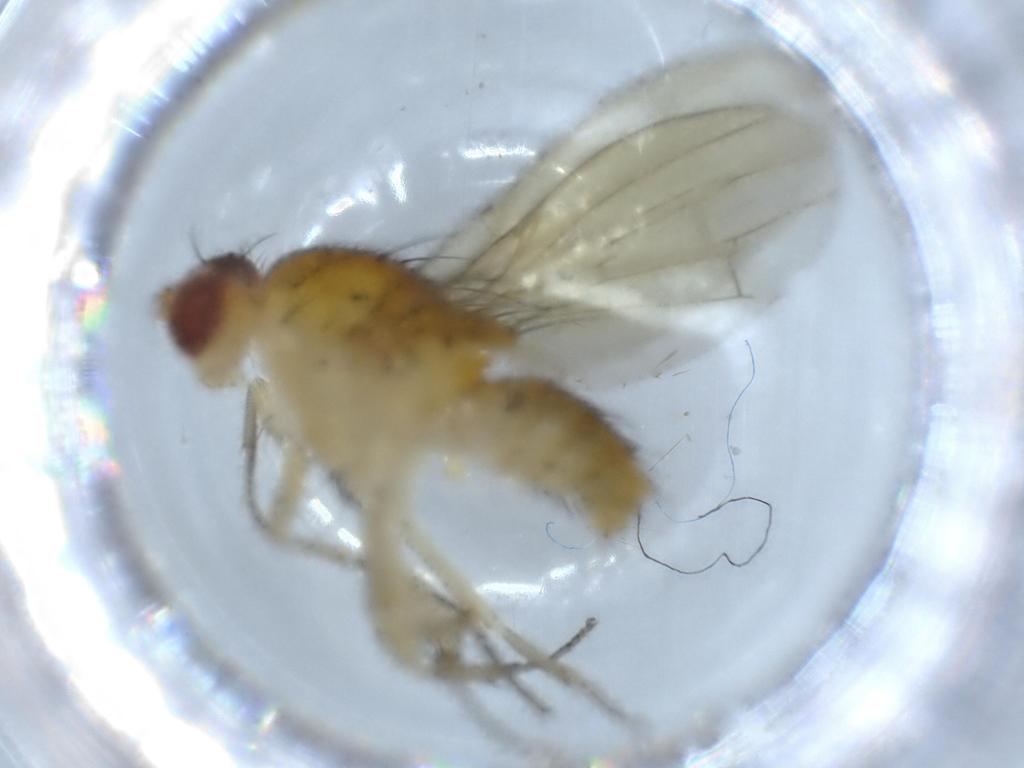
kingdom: Animalia
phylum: Arthropoda
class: Insecta
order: Diptera
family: Lauxaniidae
